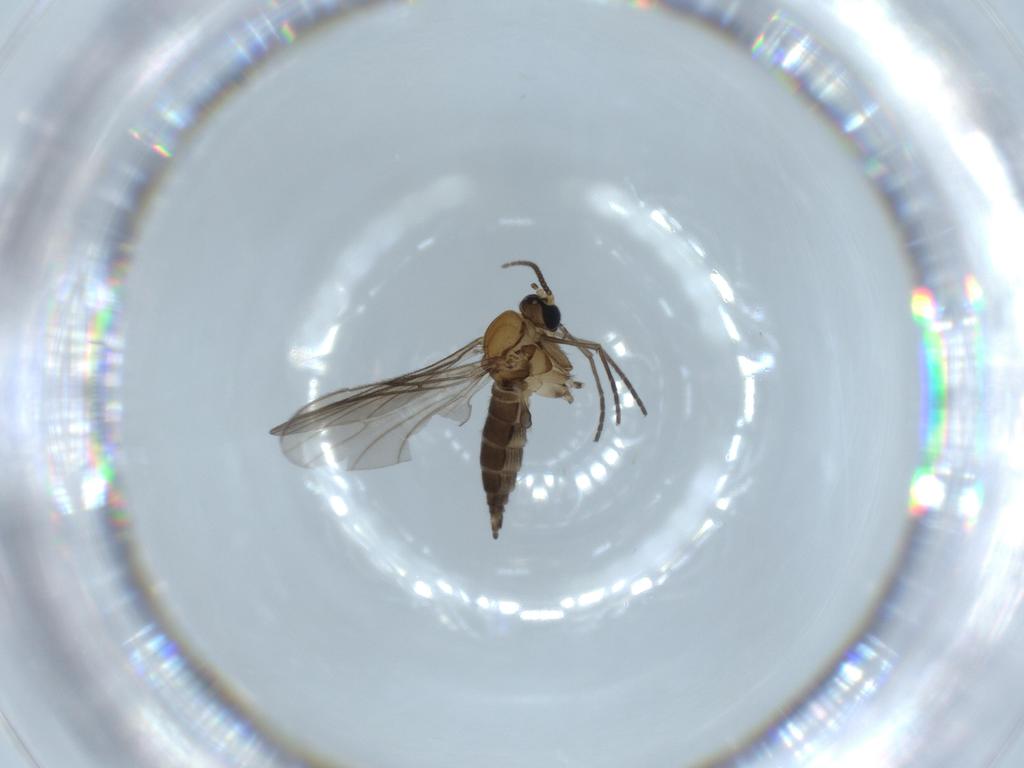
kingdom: Animalia
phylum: Arthropoda
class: Insecta
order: Diptera
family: Sciaridae
